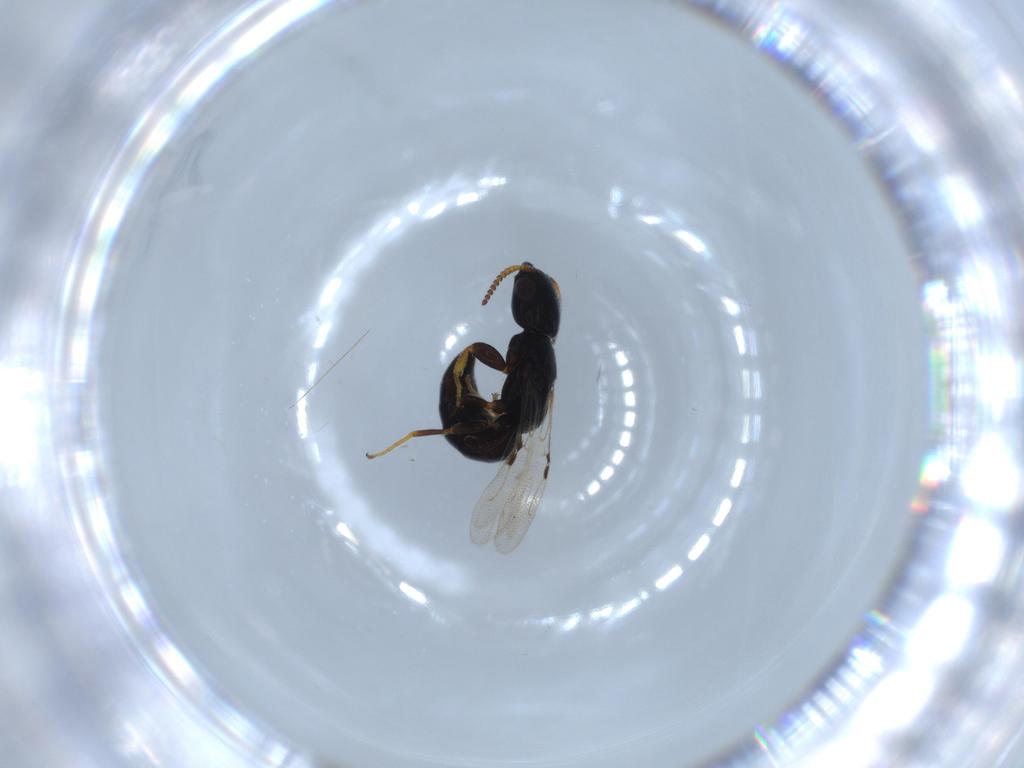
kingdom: Animalia
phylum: Arthropoda
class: Insecta
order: Hymenoptera
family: Bethylidae
